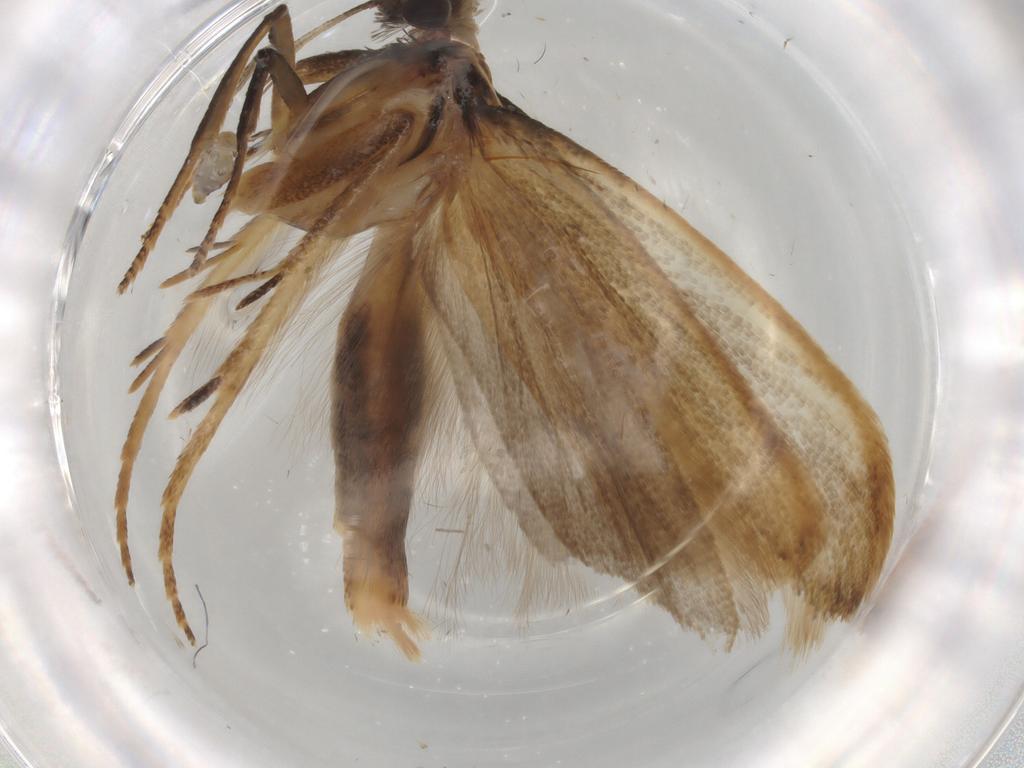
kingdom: Animalia
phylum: Arthropoda
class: Insecta
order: Lepidoptera
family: Gelechiidae
